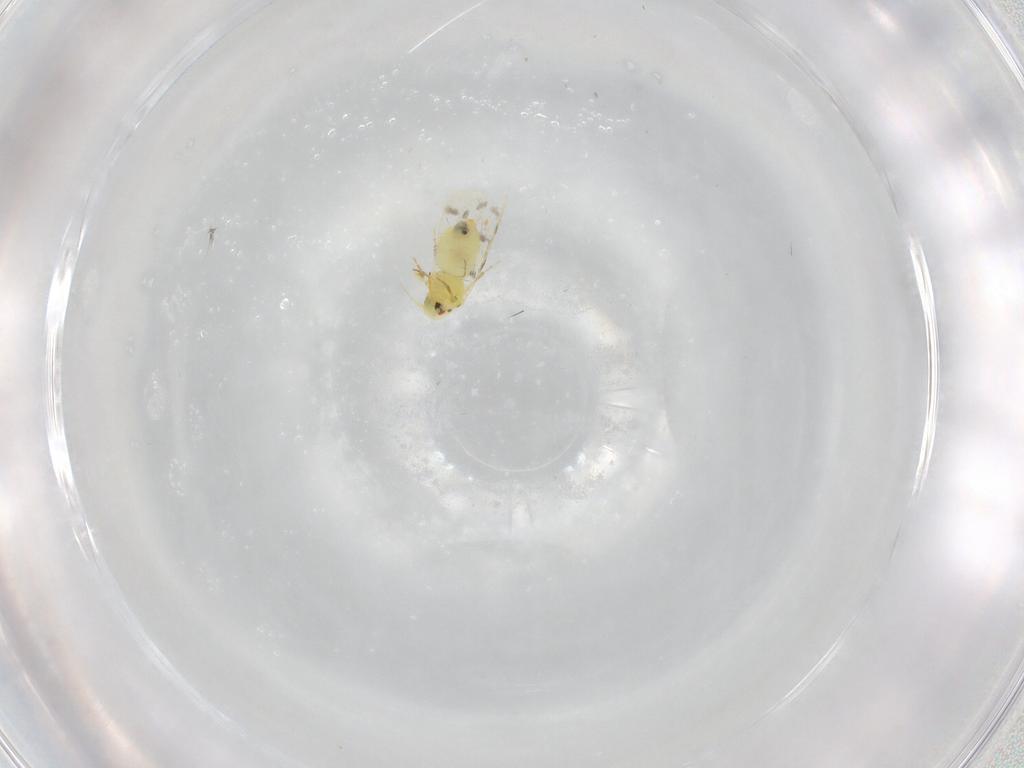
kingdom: Animalia
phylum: Arthropoda
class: Insecta
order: Hemiptera
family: Aleyrodidae
